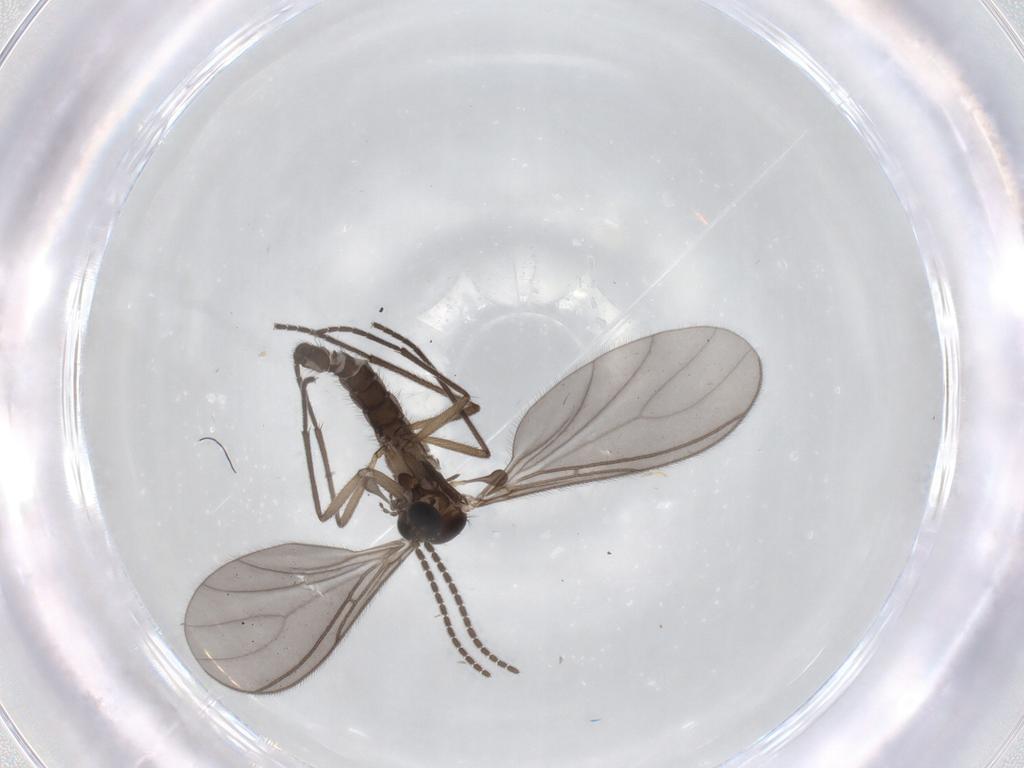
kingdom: Animalia
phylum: Arthropoda
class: Insecta
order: Diptera
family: Sciaridae
